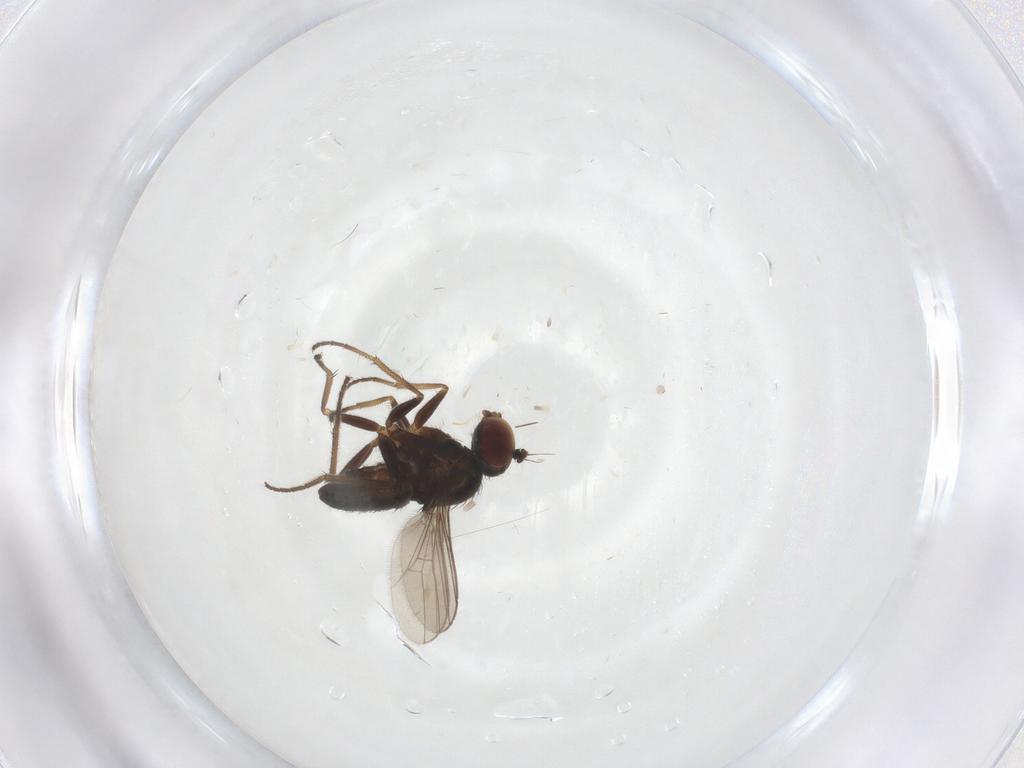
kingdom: Animalia
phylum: Arthropoda
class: Insecta
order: Diptera
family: Dolichopodidae
